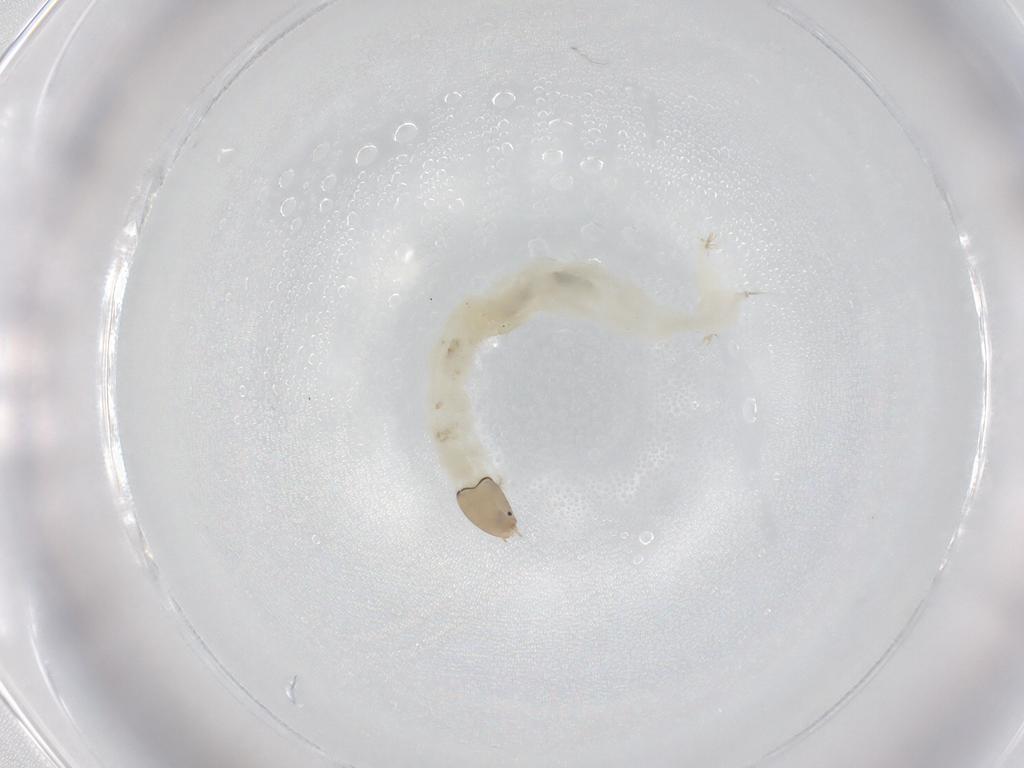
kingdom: Animalia
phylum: Arthropoda
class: Insecta
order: Diptera
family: Chironomidae
